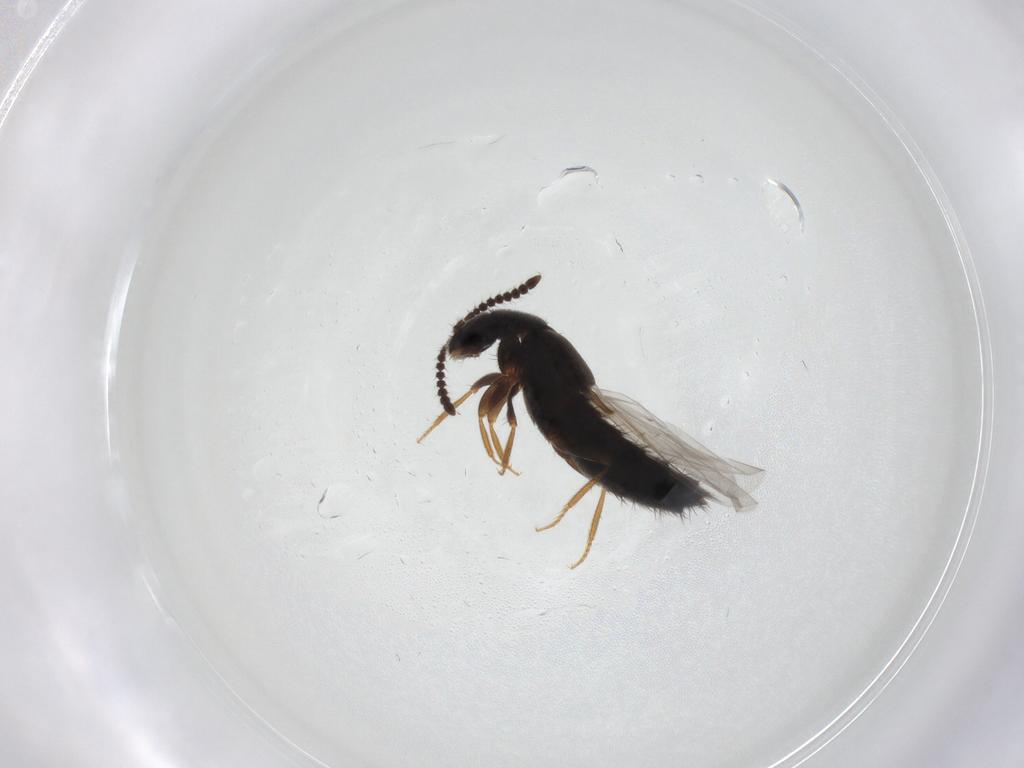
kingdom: Animalia
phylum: Arthropoda
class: Insecta
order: Coleoptera
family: Staphylinidae
